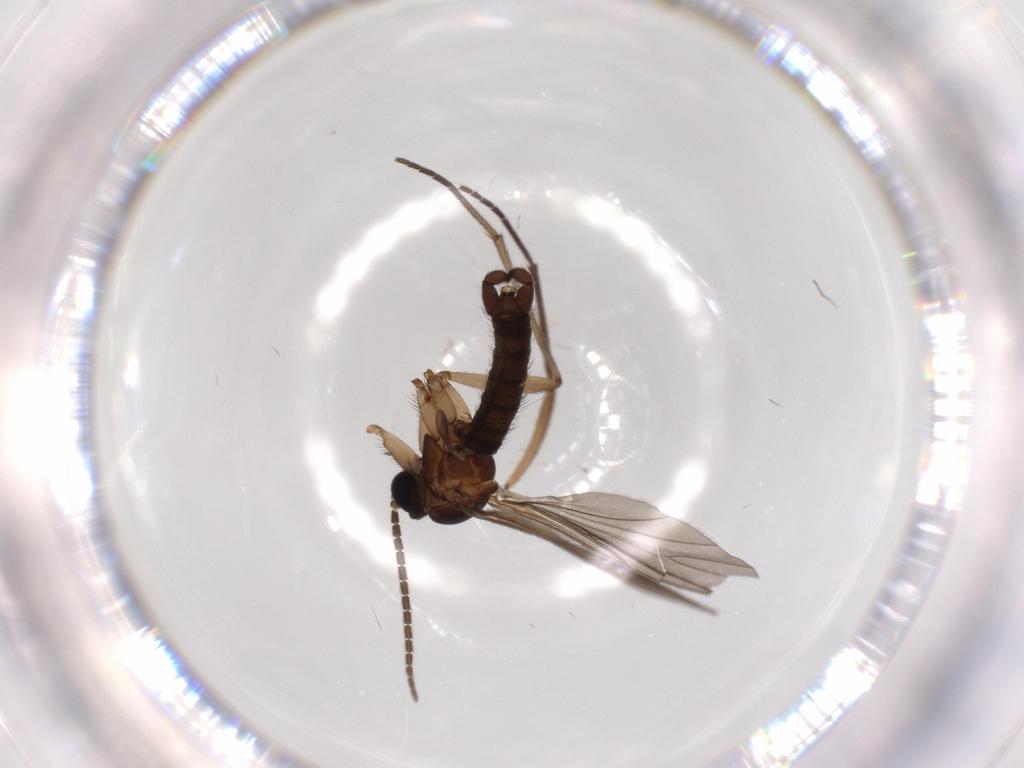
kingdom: Animalia
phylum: Arthropoda
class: Insecta
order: Diptera
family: Sciaridae
